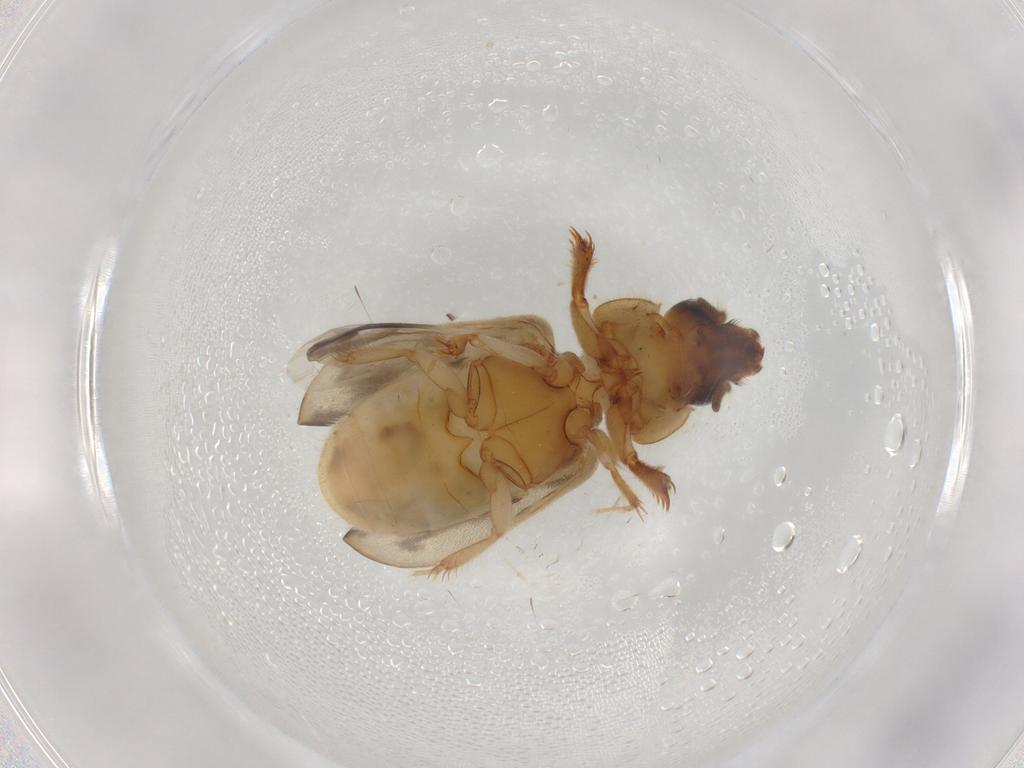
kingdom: Animalia
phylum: Arthropoda
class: Insecta
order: Coleoptera
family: Heteroceridae
